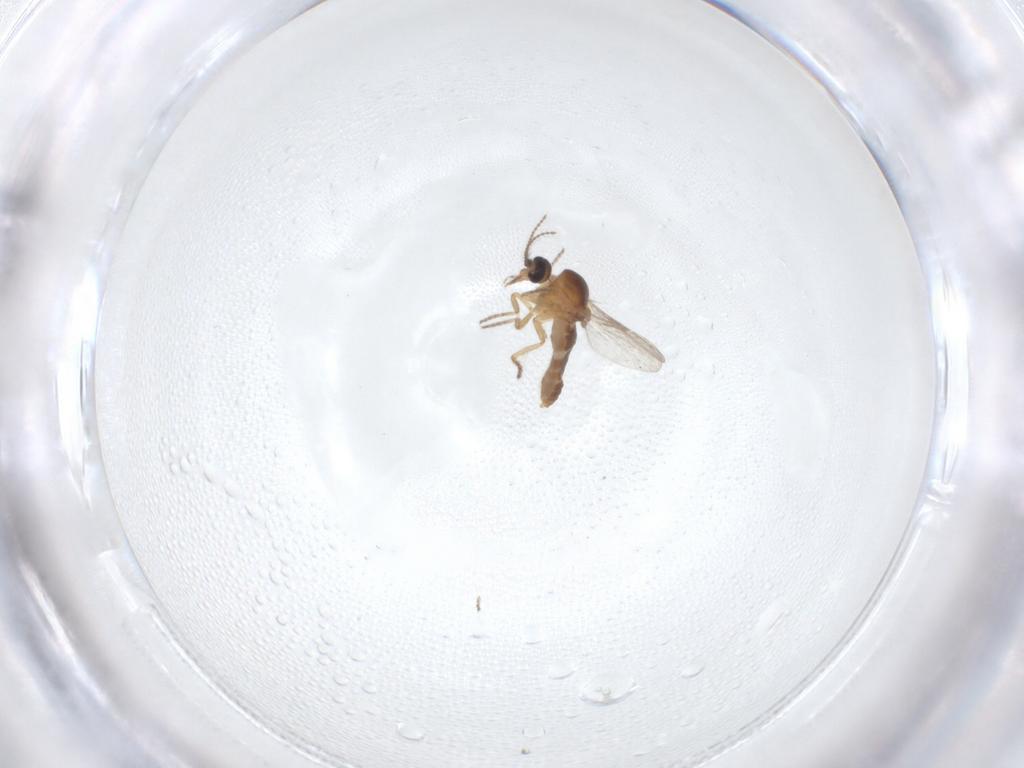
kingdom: Animalia
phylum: Arthropoda
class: Insecta
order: Diptera
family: Ceratopogonidae
